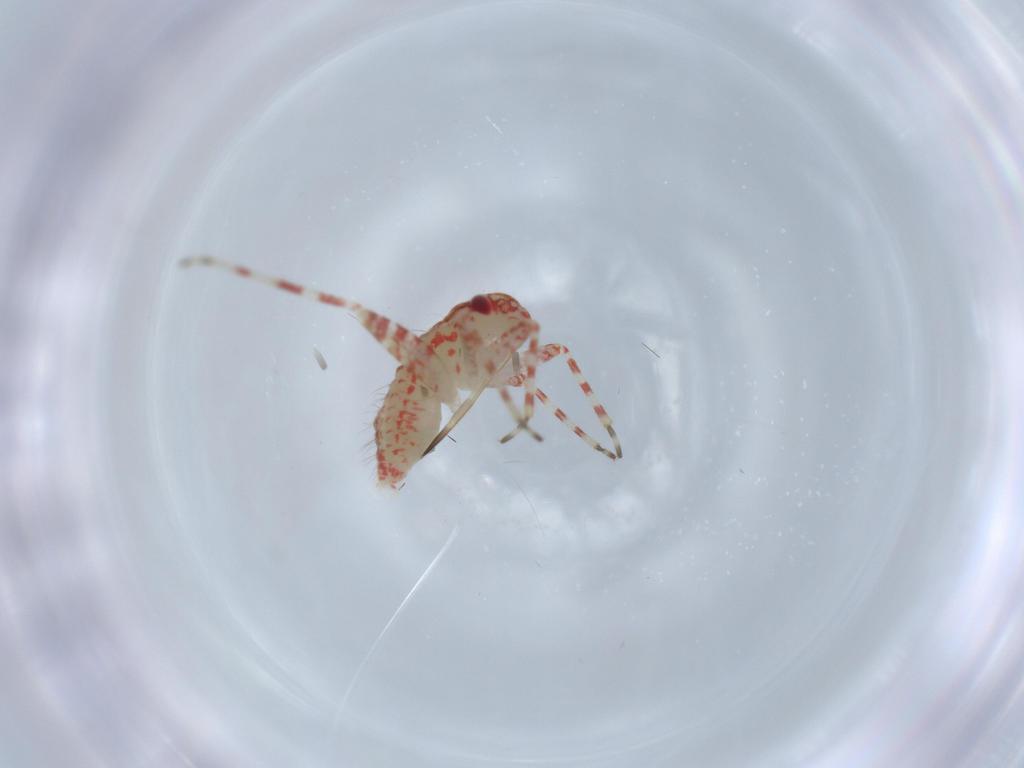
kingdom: Animalia
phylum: Arthropoda
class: Insecta
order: Hemiptera
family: Miridae
